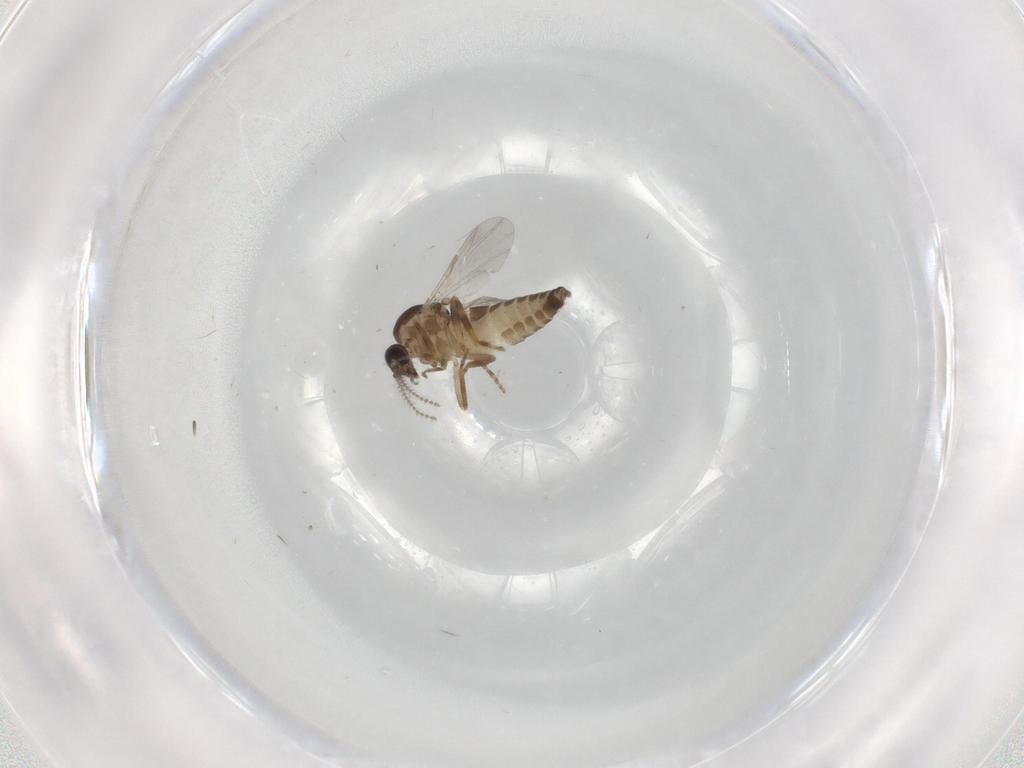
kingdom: Animalia
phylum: Arthropoda
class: Insecta
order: Diptera
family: Ceratopogonidae
